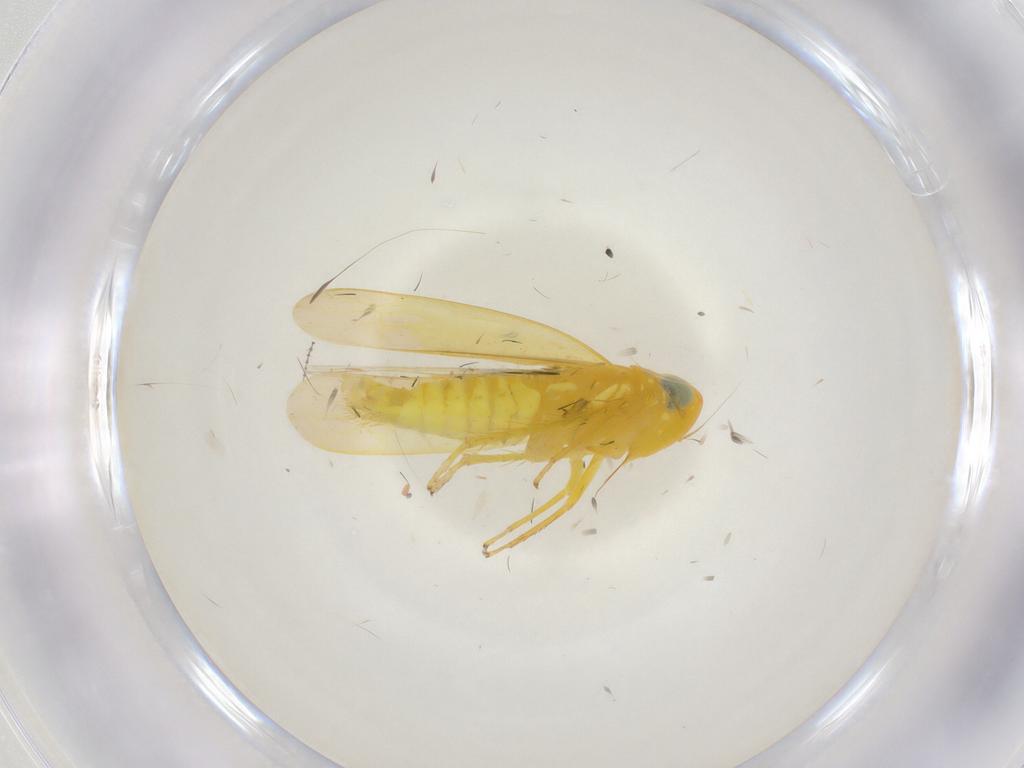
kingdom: Animalia
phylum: Arthropoda
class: Insecta
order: Hemiptera
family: Cicadellidae
